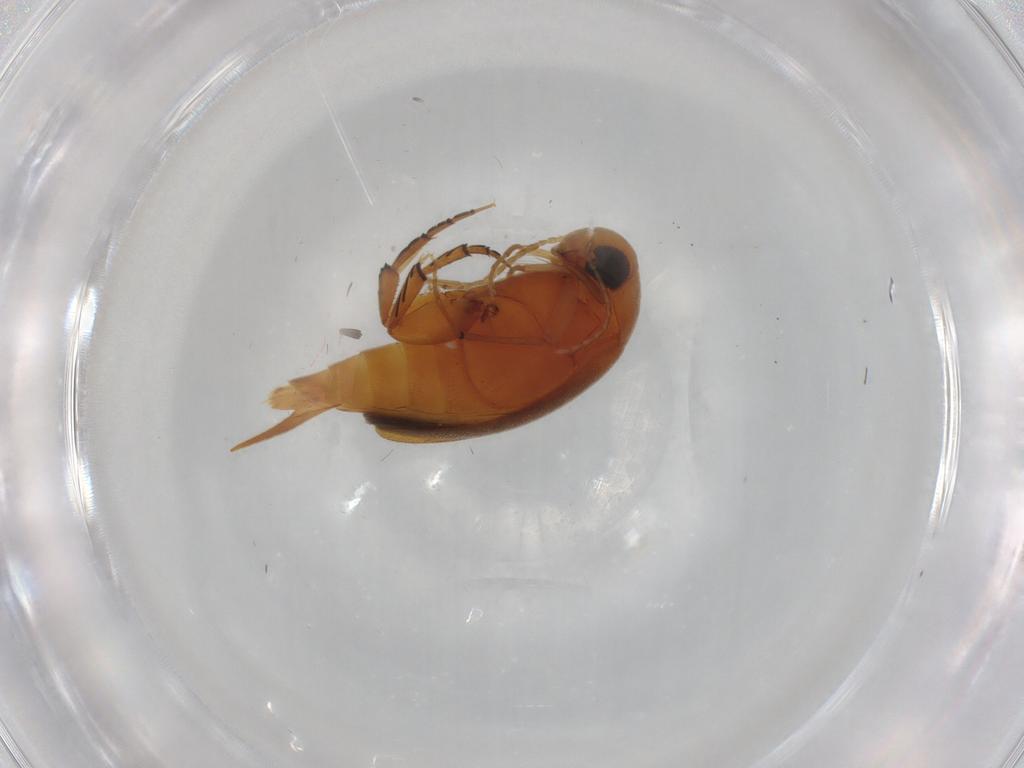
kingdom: Animalia
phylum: Arthropoda
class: Insecta
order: Coleoptera
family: Mordellidae
